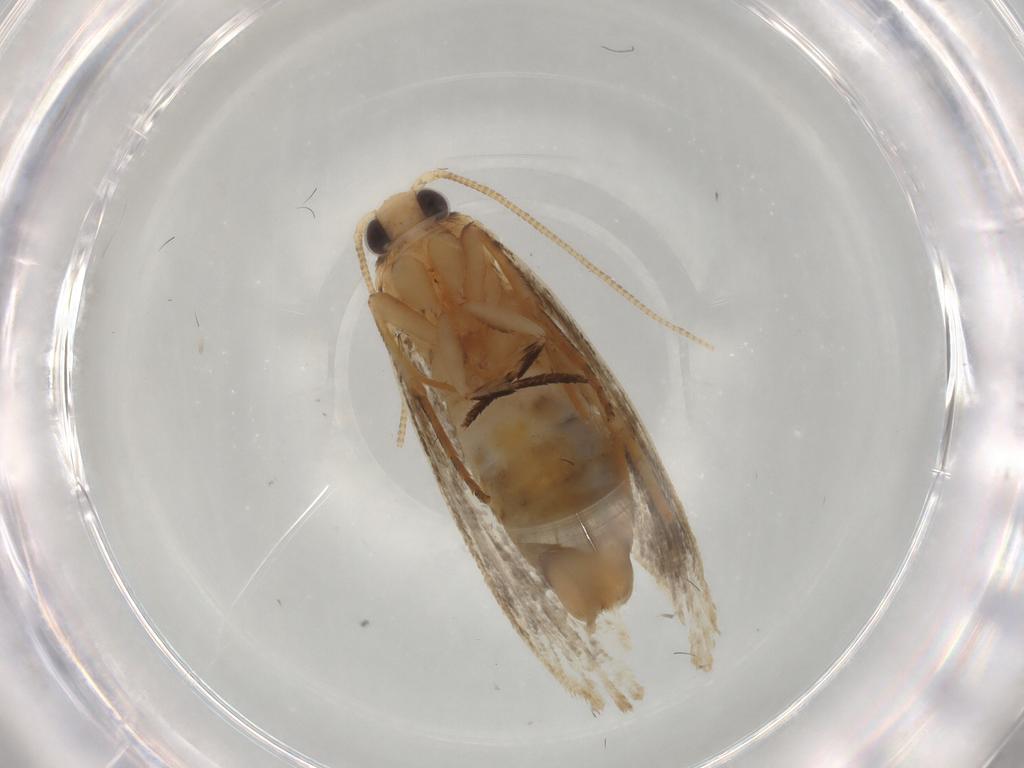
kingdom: Animalia
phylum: Arthropoda
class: Insecta
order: Lepidoptera
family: Tineidae
